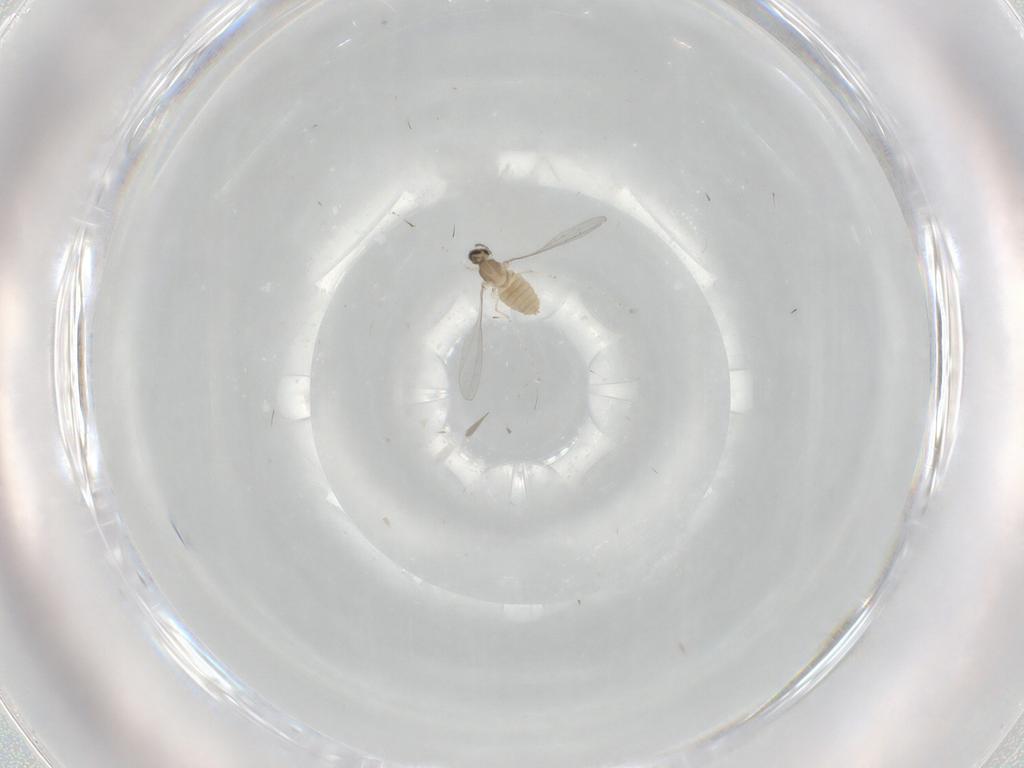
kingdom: Animalia
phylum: Arthropoda
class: Insecta
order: Diptera
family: Cecidomyiidae
